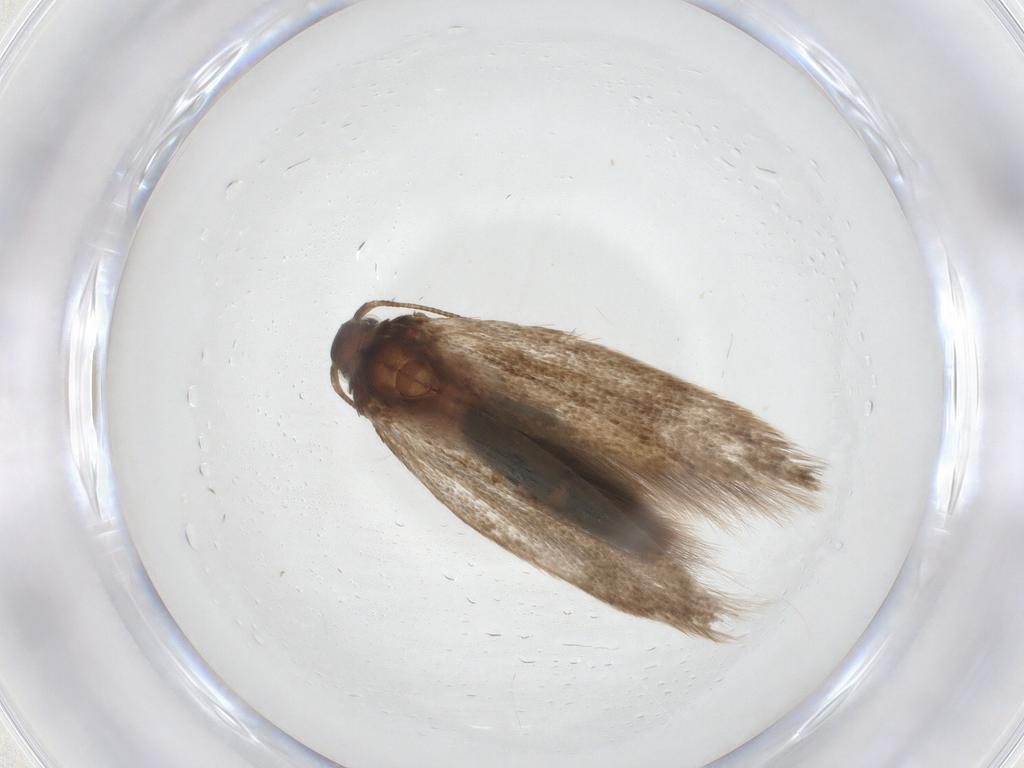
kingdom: Animalia
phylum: Arthropoda
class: Insecta
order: Lepidoptera
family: Cosmopterigidae
